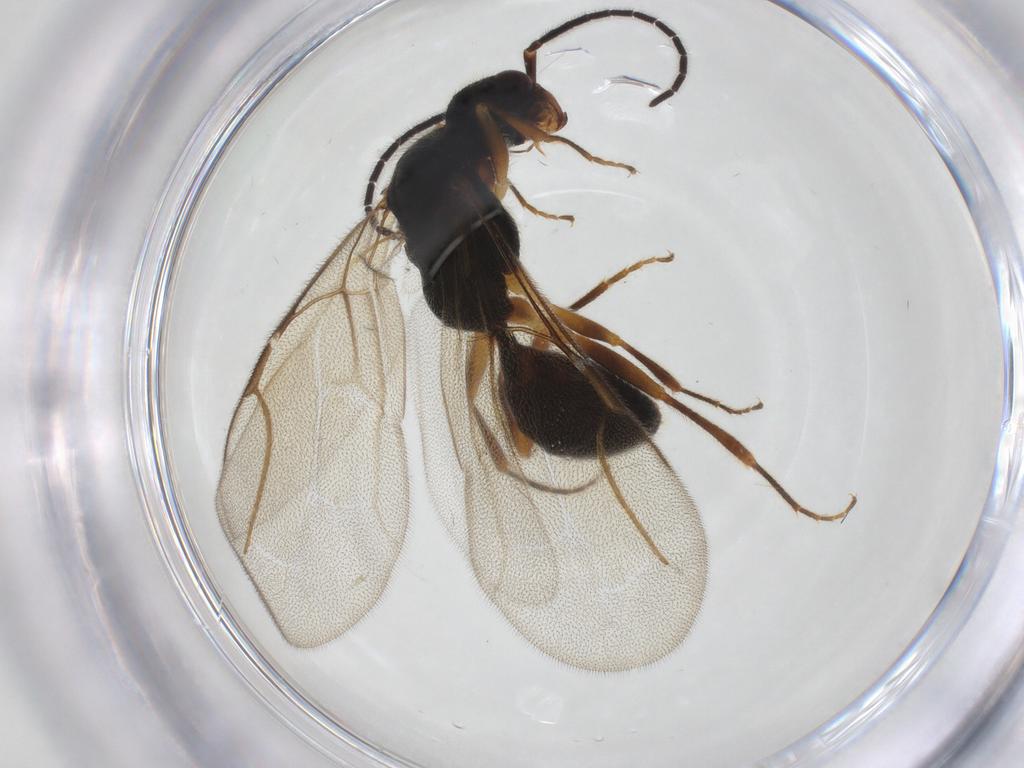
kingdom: Animalia
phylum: Arthropoda
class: Insecta
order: Hymenoptera
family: Bethylidae
